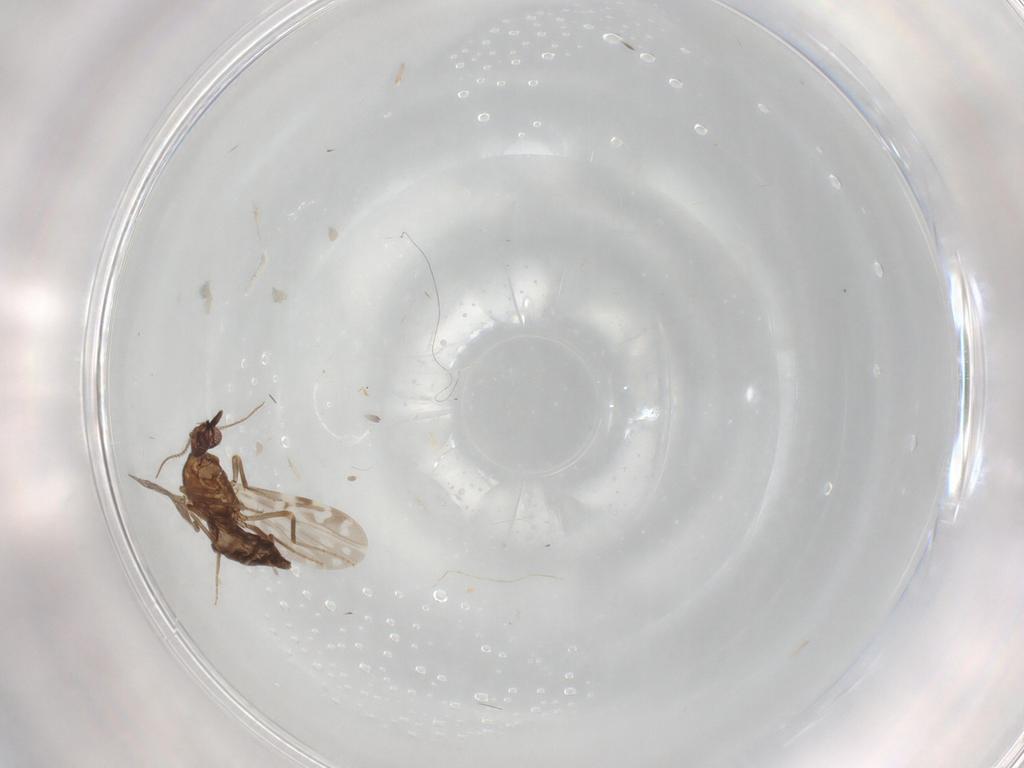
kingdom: Animalia
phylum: Arthropoda
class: Insecta
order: Diptera
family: Ceratopogonidae
